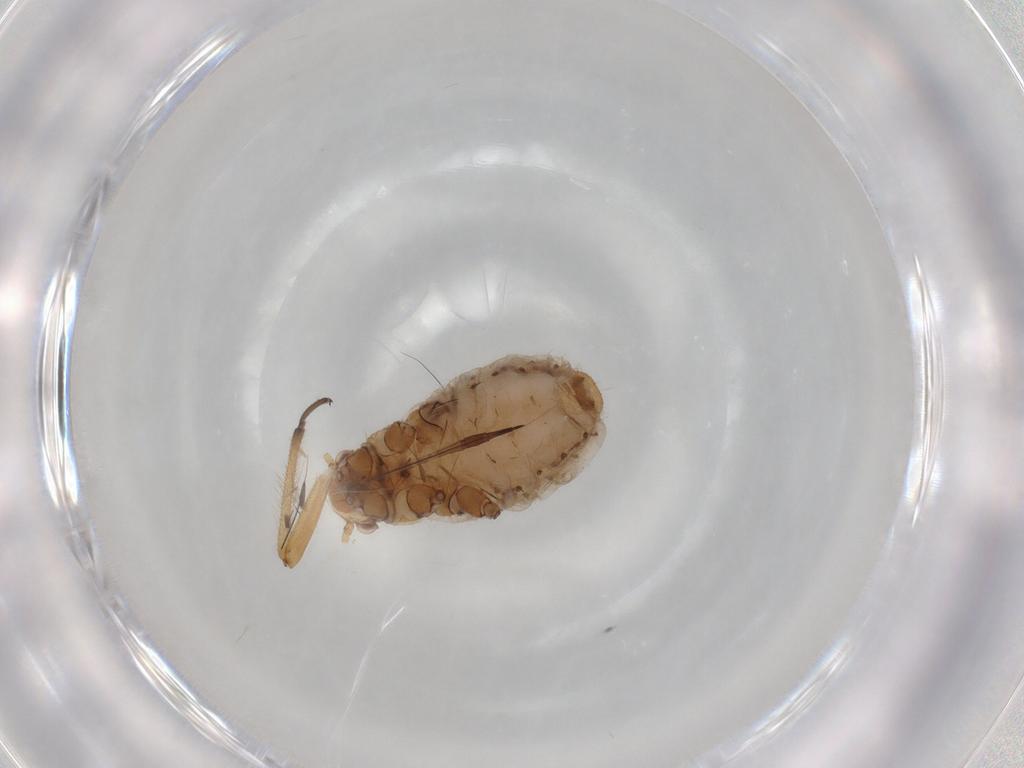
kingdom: Animalia
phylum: Arthropoda
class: Insecta
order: Hemiptera
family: Aphididae
